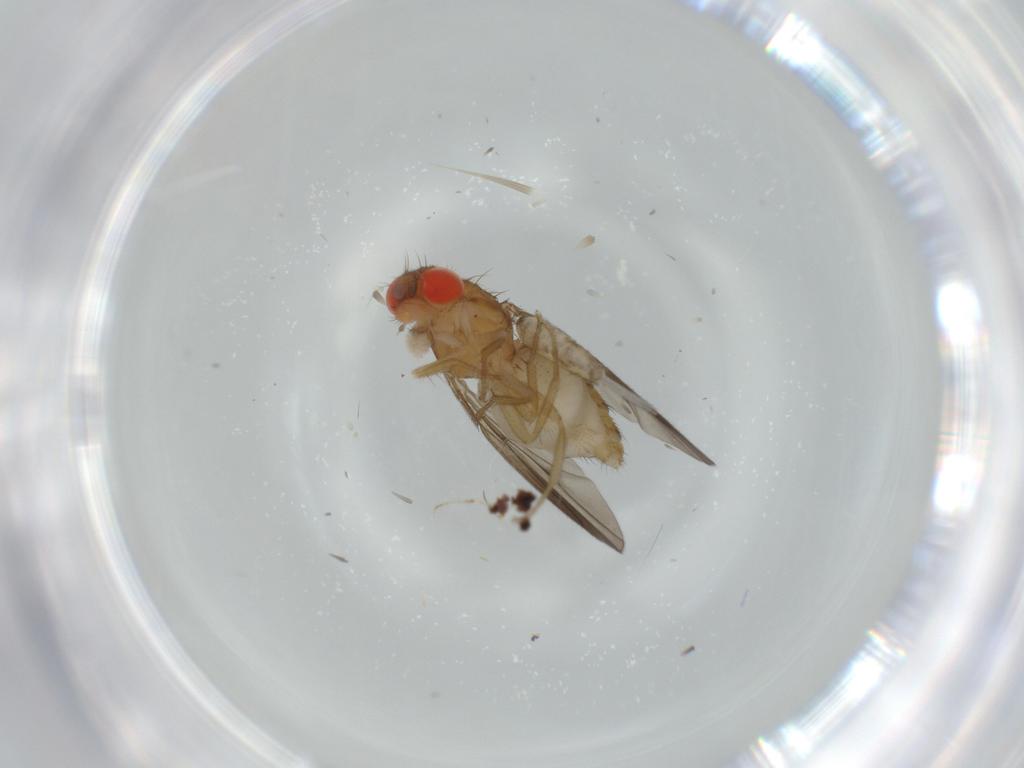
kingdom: Animalia
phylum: Arthropoda
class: Insecta
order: Diptera
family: Drosophilidae
